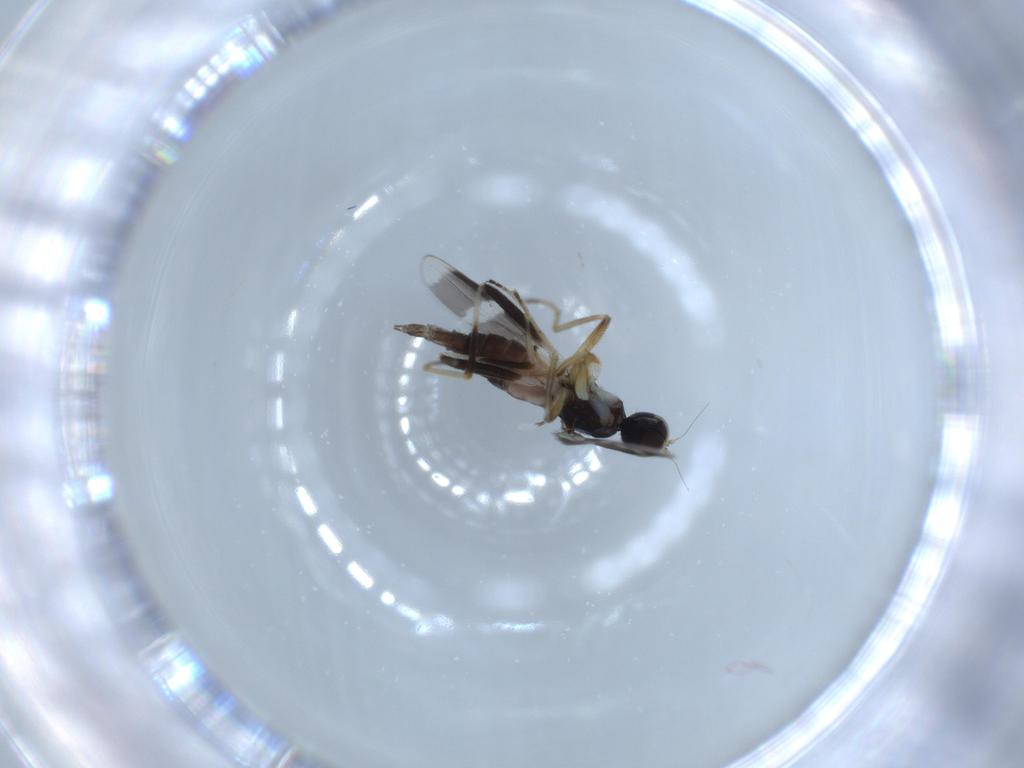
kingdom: Animalia
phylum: Arthropoda
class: Insecta
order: Diptera
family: Hybotidae
